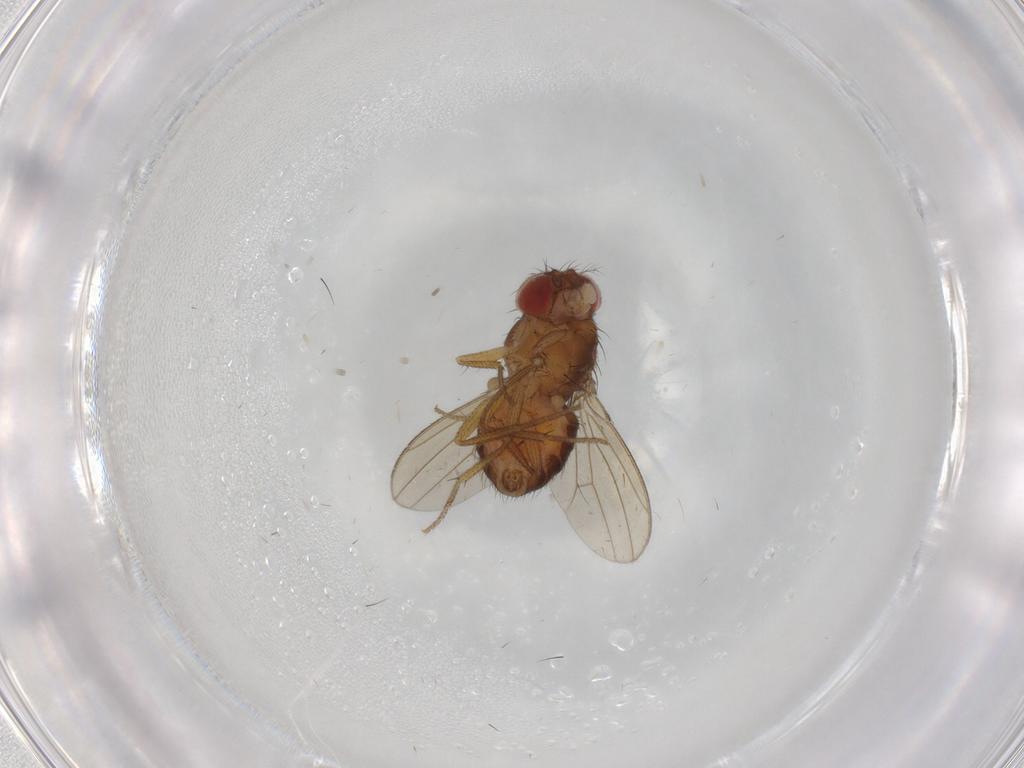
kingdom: Animalia
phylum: Arthropoda
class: Insecta
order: Diptera
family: Drosophilidae
